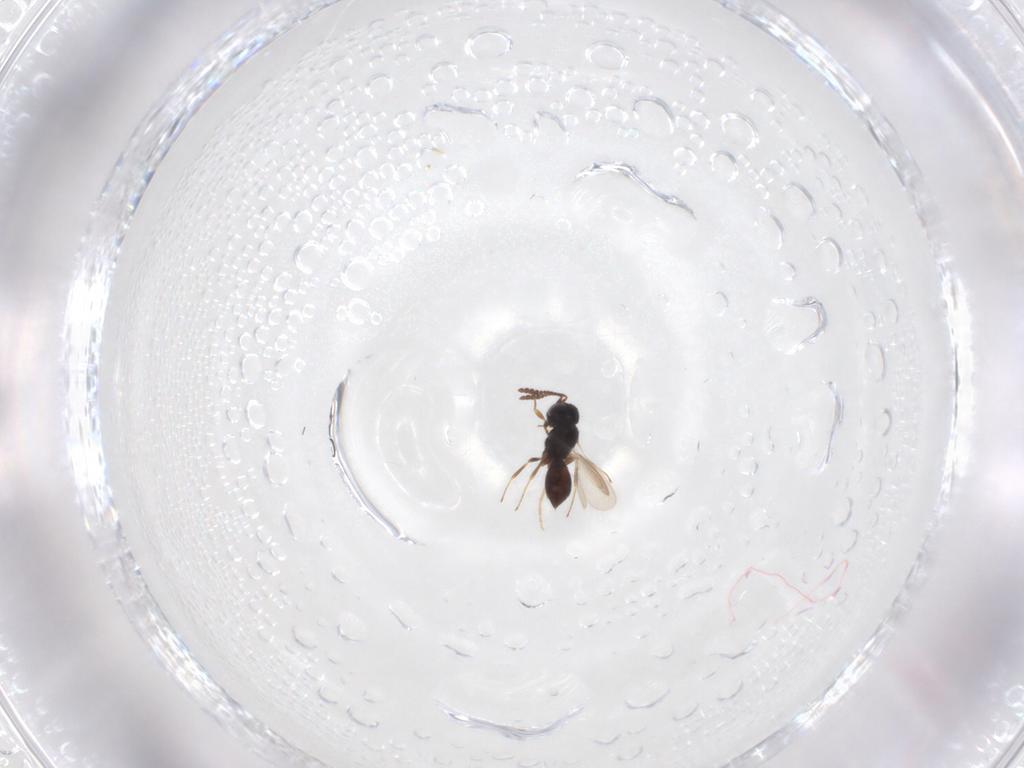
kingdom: Animalia
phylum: Arthropoda
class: Insecta
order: Hymenoptera
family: Scelionidae
